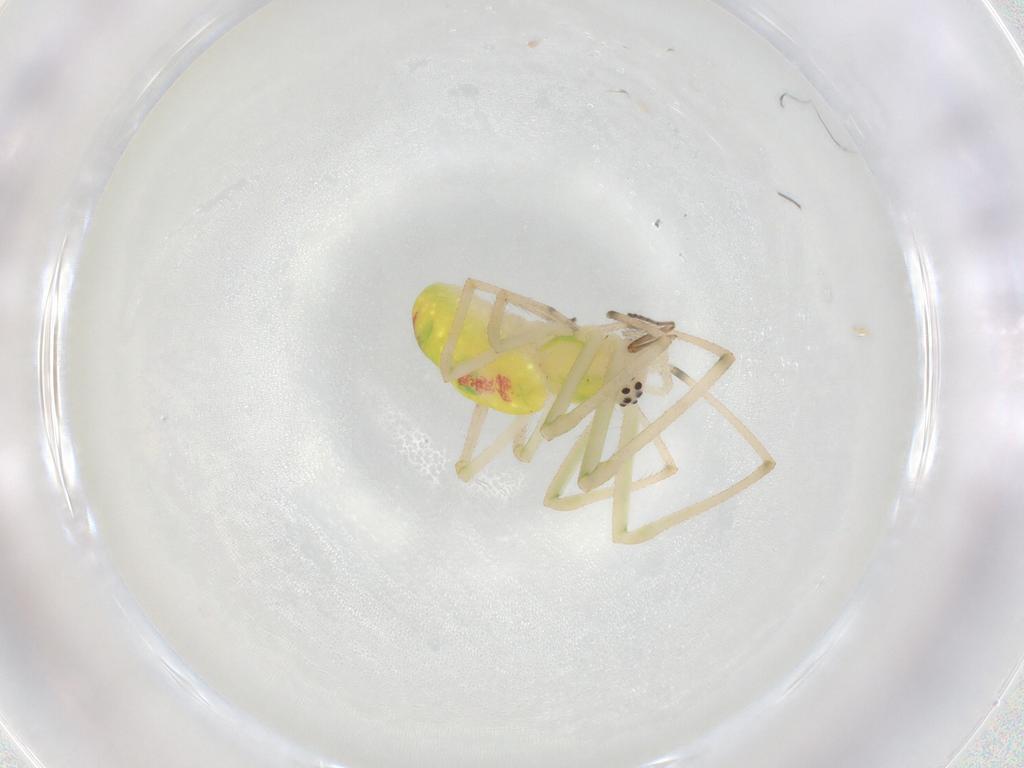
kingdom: Animalia
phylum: Arthropoda
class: Arachnida
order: Araneae
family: Tetragnathidae
